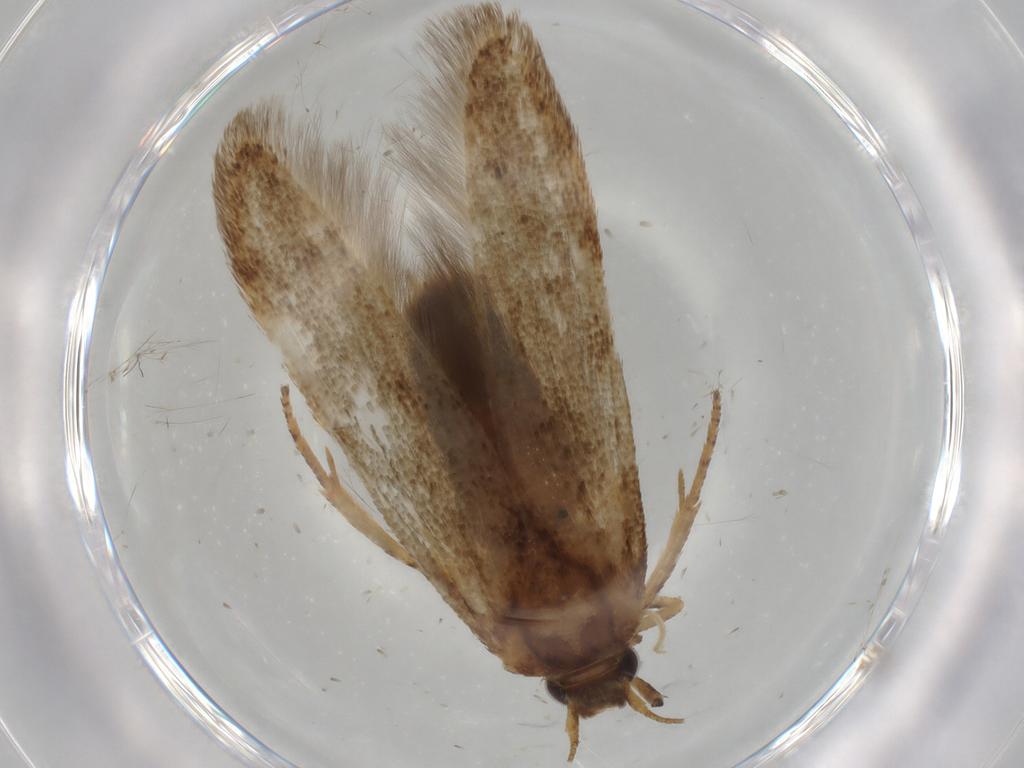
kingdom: Animalia
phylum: Arthropoda
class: Insecta
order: Lepidoptera
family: Blastobasidae
